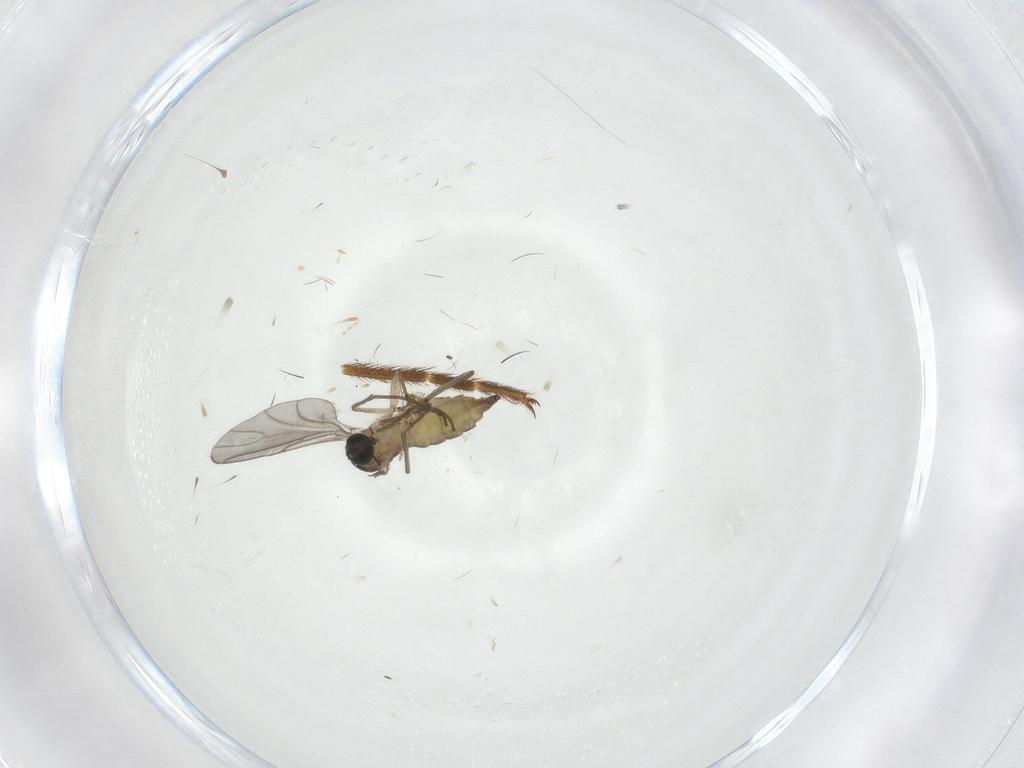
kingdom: Animalia
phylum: Arthropoda
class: Insecta
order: Diptera
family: Sciaridae
